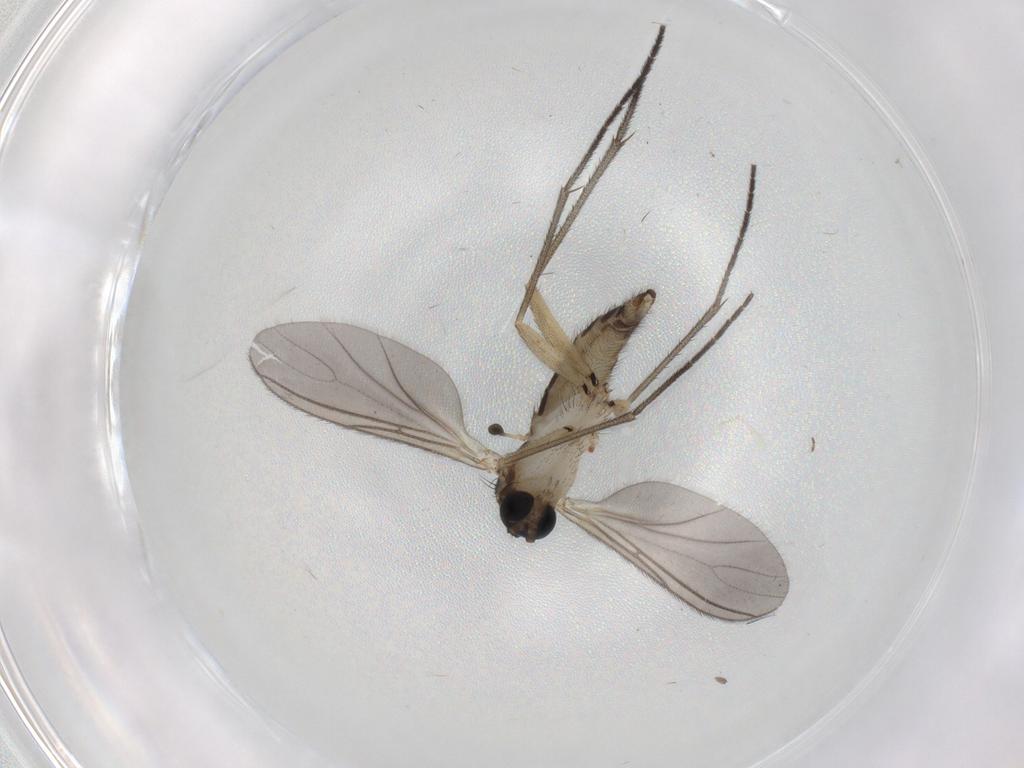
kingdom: Animalia
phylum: Arthropoda
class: Insecta
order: Diptera
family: Sciaridae
